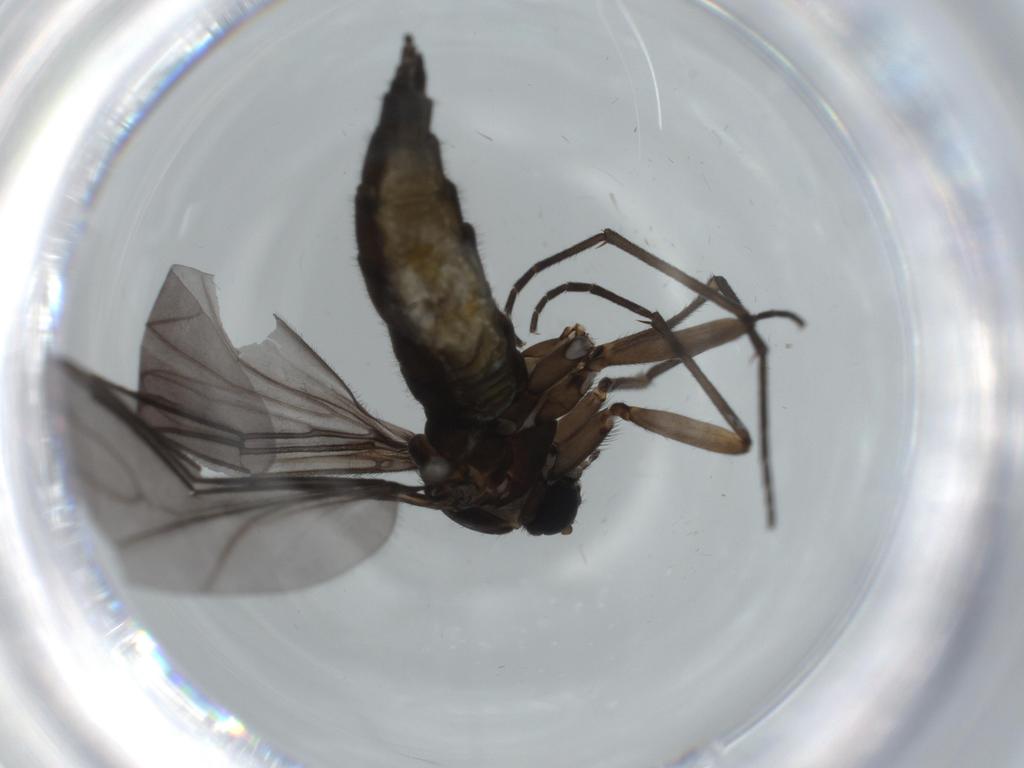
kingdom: Animalia
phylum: Arthropoda
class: Insecta
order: Diptera
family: Sciaridae
